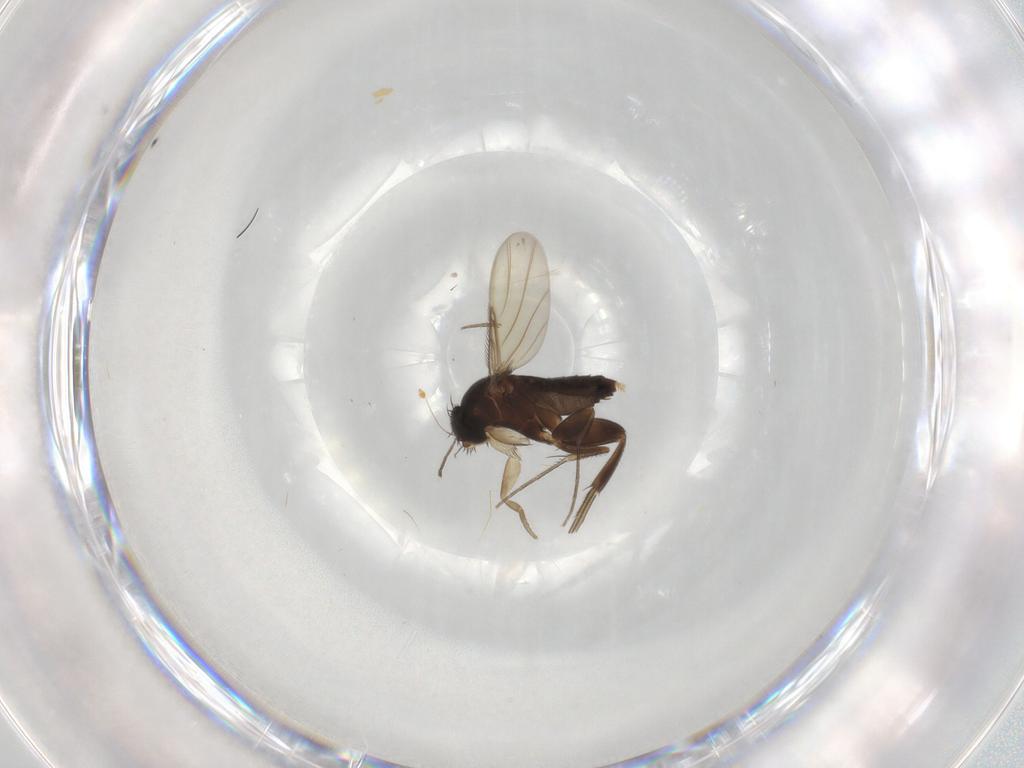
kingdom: Animalia
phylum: Arthropoda
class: Insecta
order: Diptera
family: Phoridae
